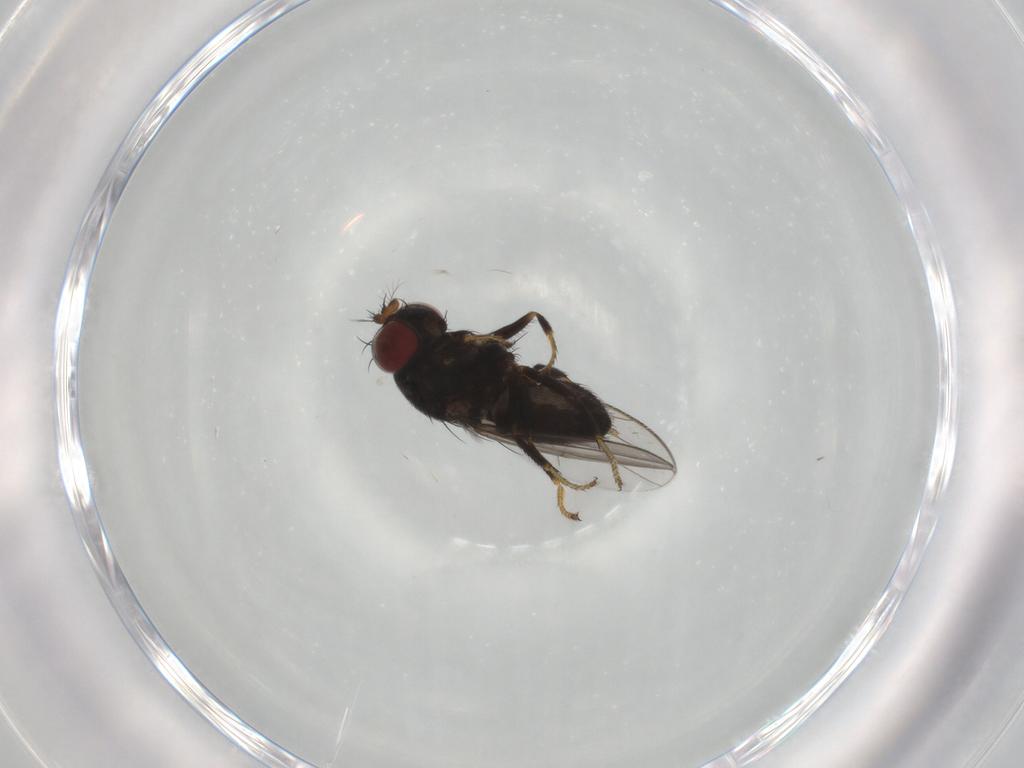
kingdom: Animalia
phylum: Arthropoda
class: Insecta
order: Diptera
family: Ephydridae
